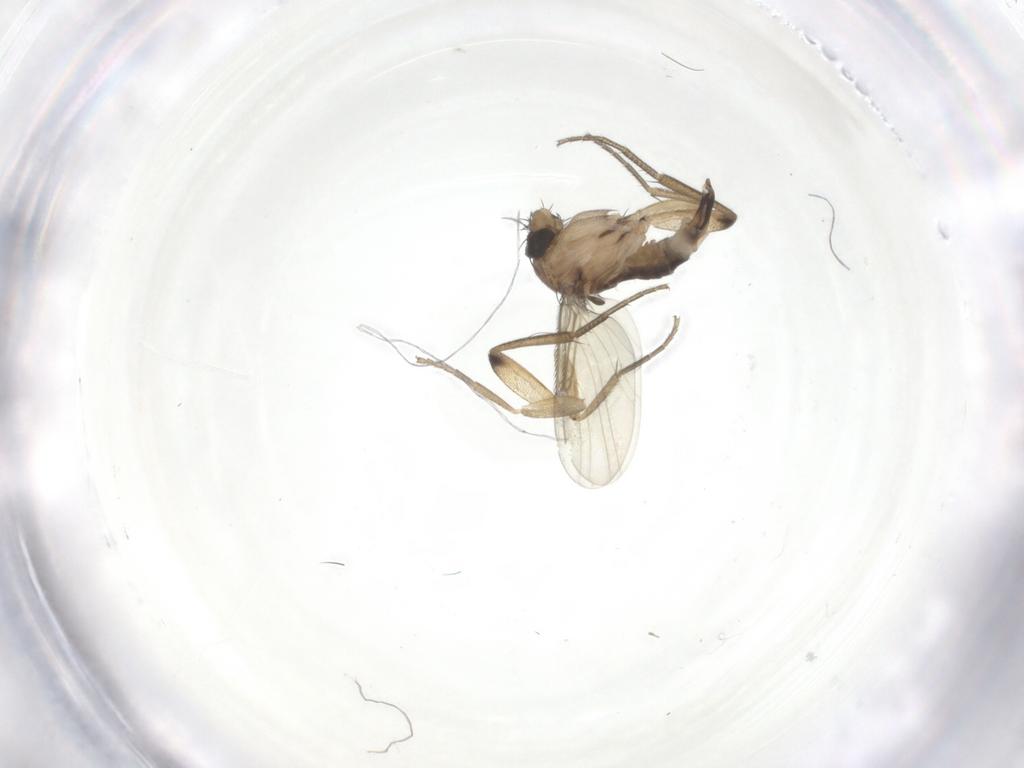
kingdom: Animalia
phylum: Arthropoda
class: Insecta
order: Diptera
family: Phoridae
